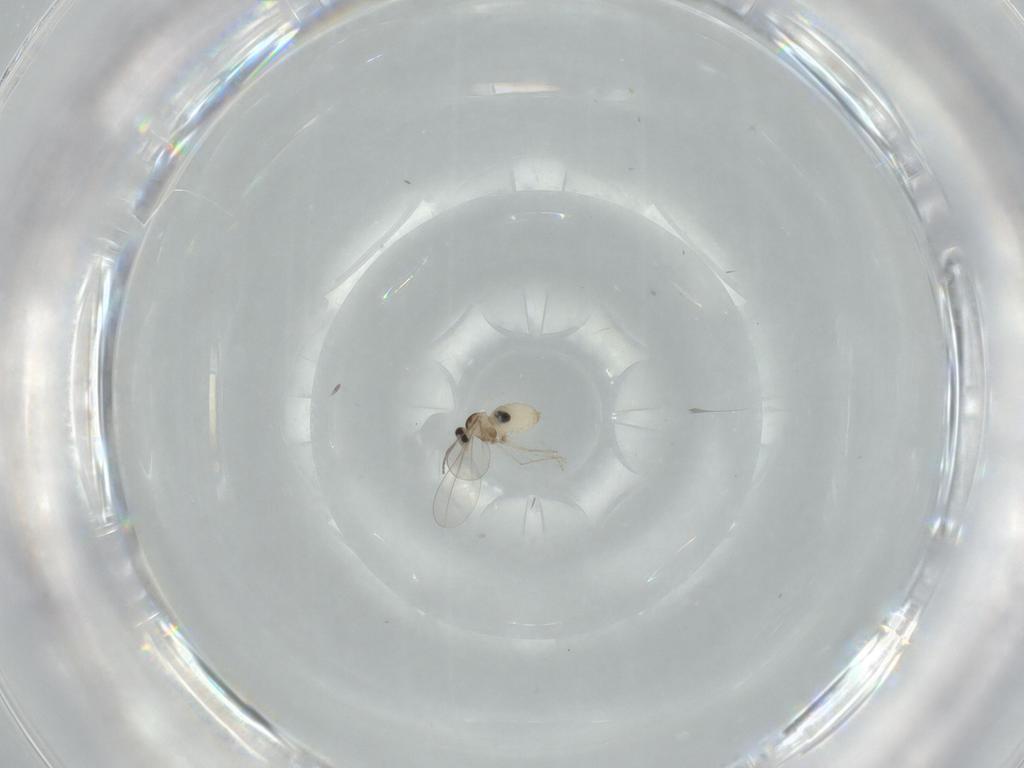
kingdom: Animalia
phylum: Arthropoda
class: Insecta
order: Diptera
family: Cecidomyiidae
